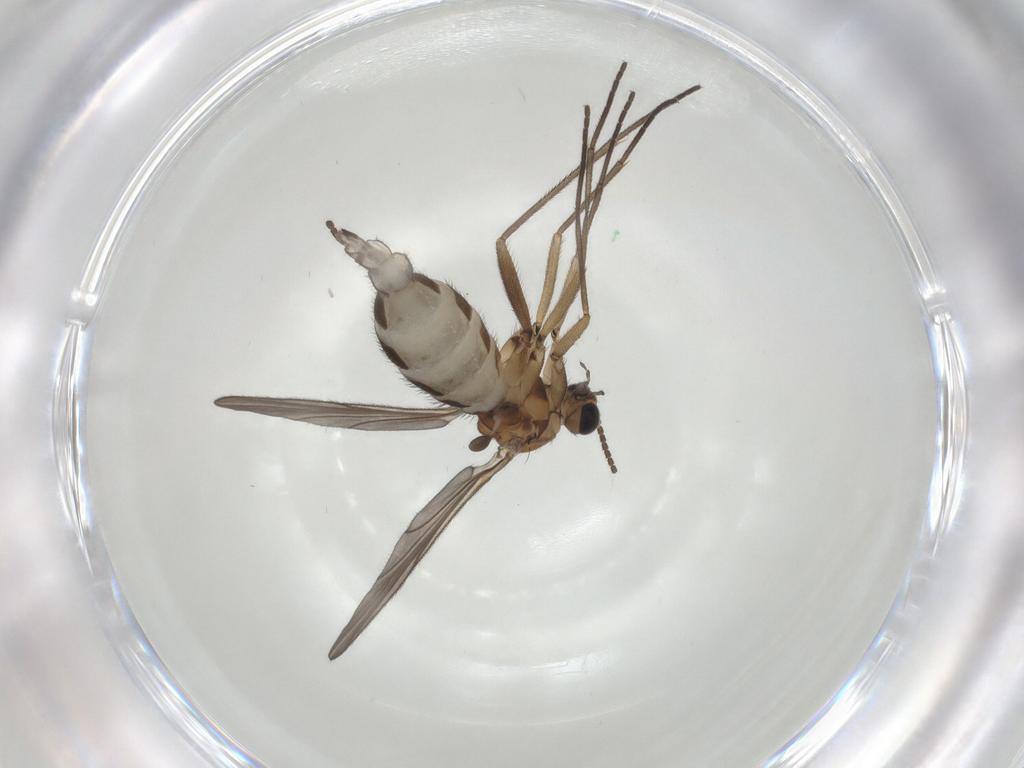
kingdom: Animalia
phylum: Arthropoda
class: Insecta
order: Diptera
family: Sciaridae
